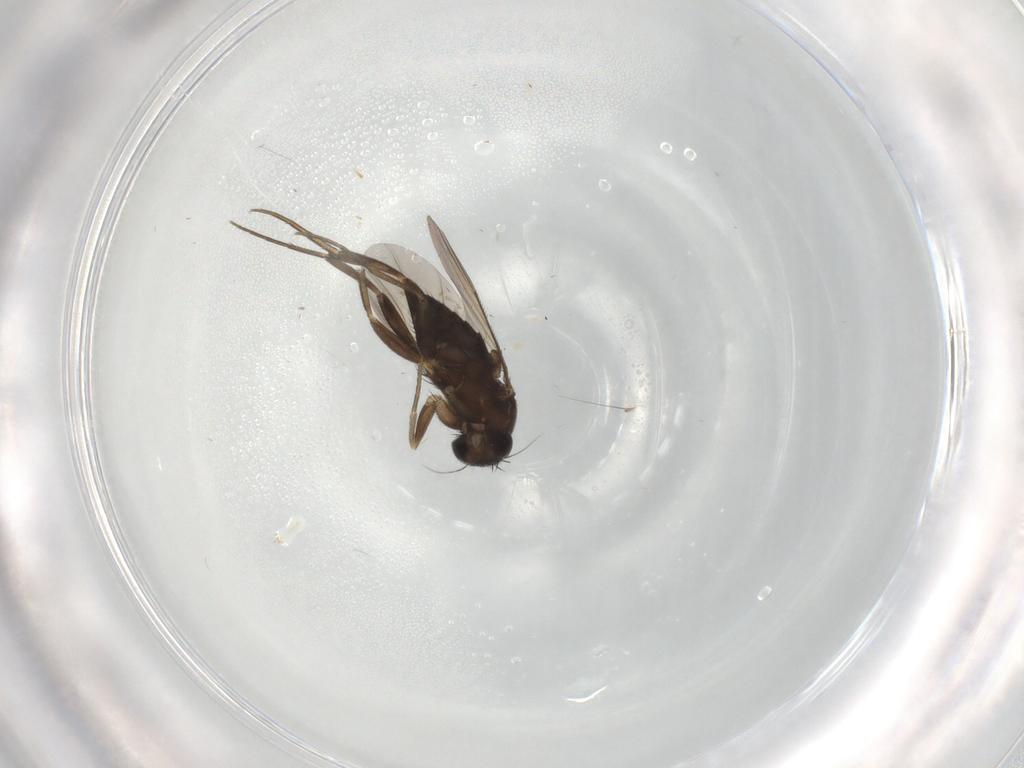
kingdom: Animalia
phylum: Arthropoda
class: Insecta
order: Diptera
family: Phoridae
